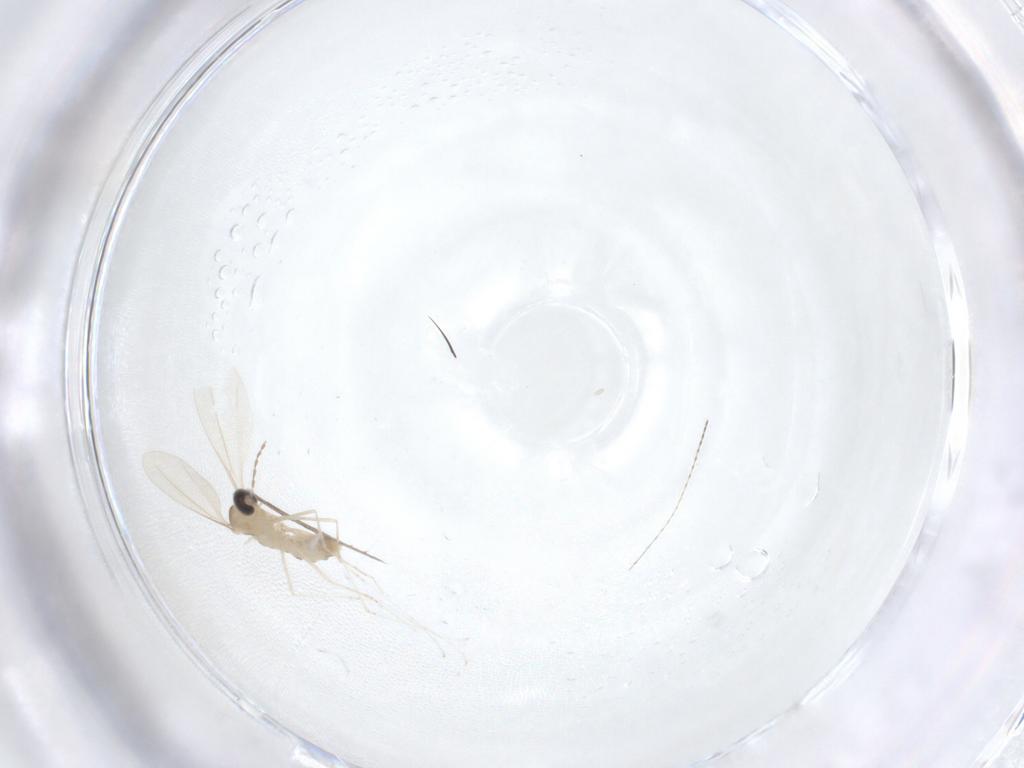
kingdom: Animalia
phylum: Arthropoda
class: Insecta
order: Diptera
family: Cecidomyiidae
